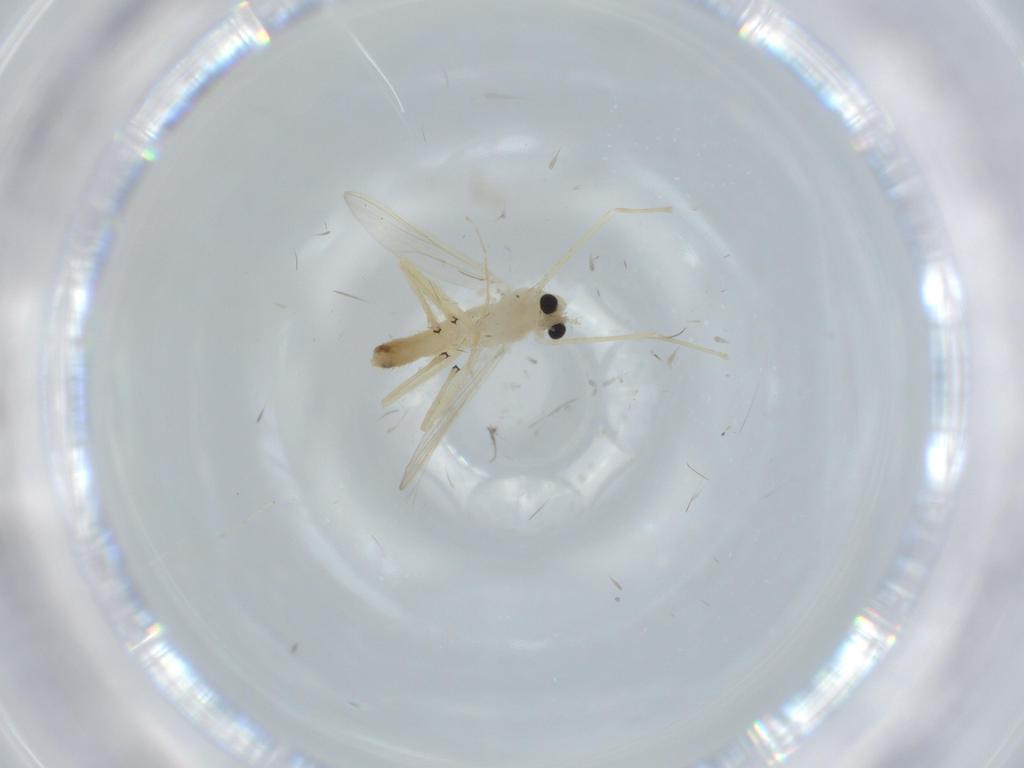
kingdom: Animalia
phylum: Arthropoda
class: Insecta
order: Diptera
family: Chironomidae
